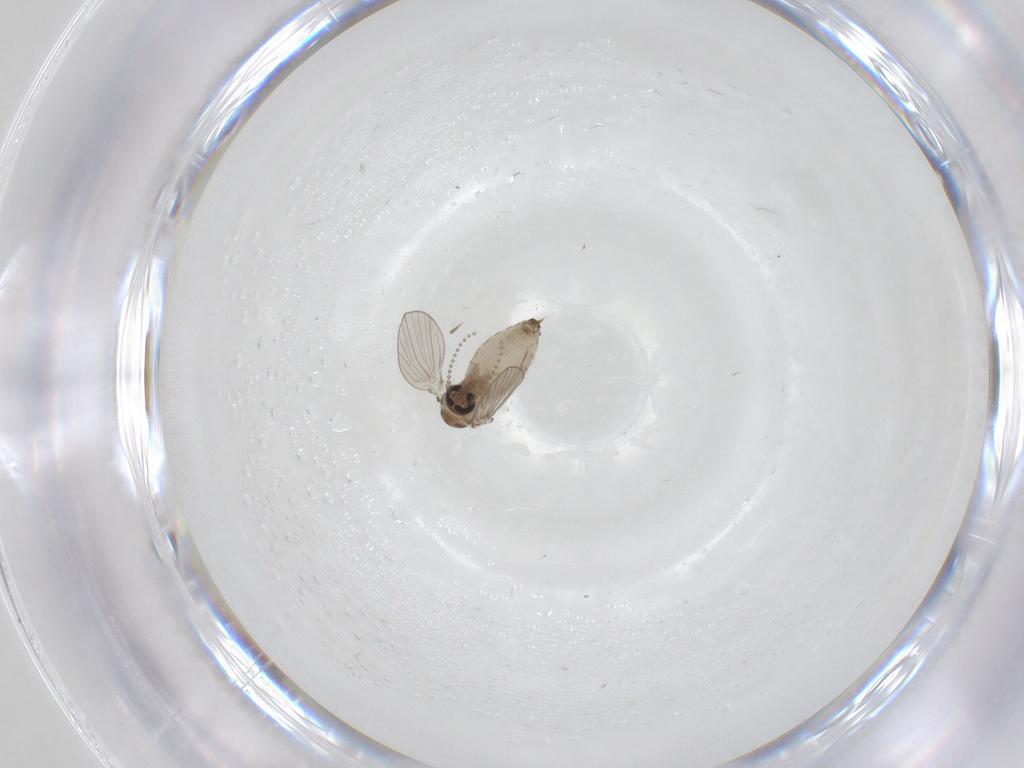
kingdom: Animalia
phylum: Arthropoda
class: Insecta
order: Diptera
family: Psychodidae
